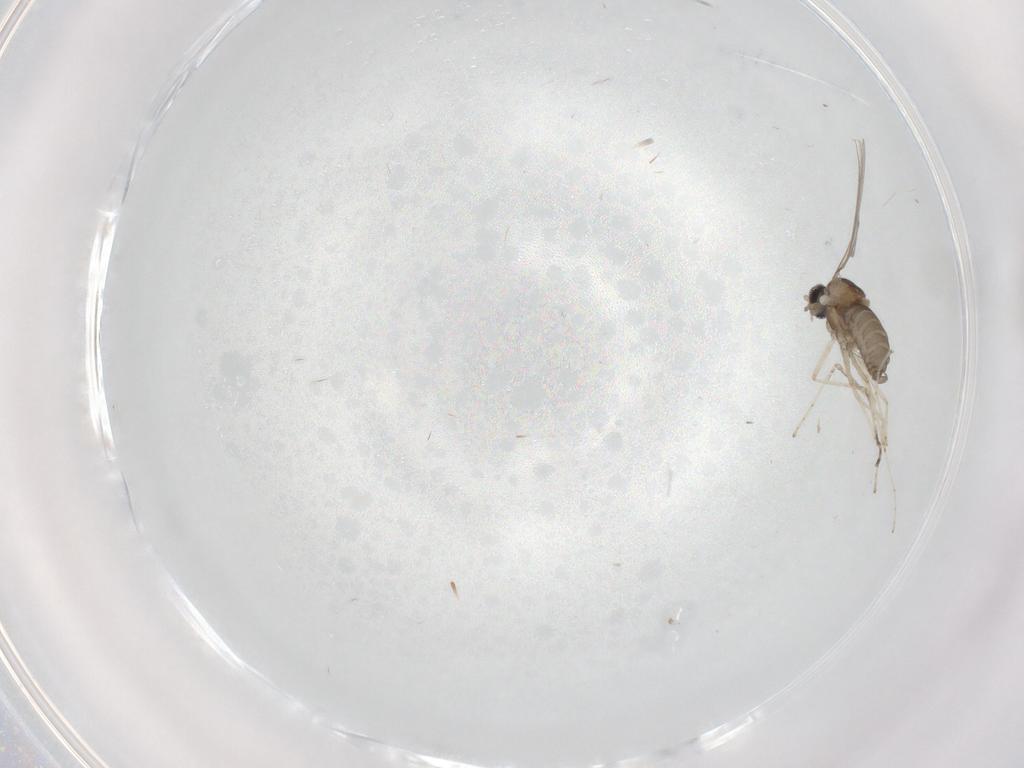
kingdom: Animalia
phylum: Arthropoda
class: Insecta
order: Diptera
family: Cecidomyiidae
